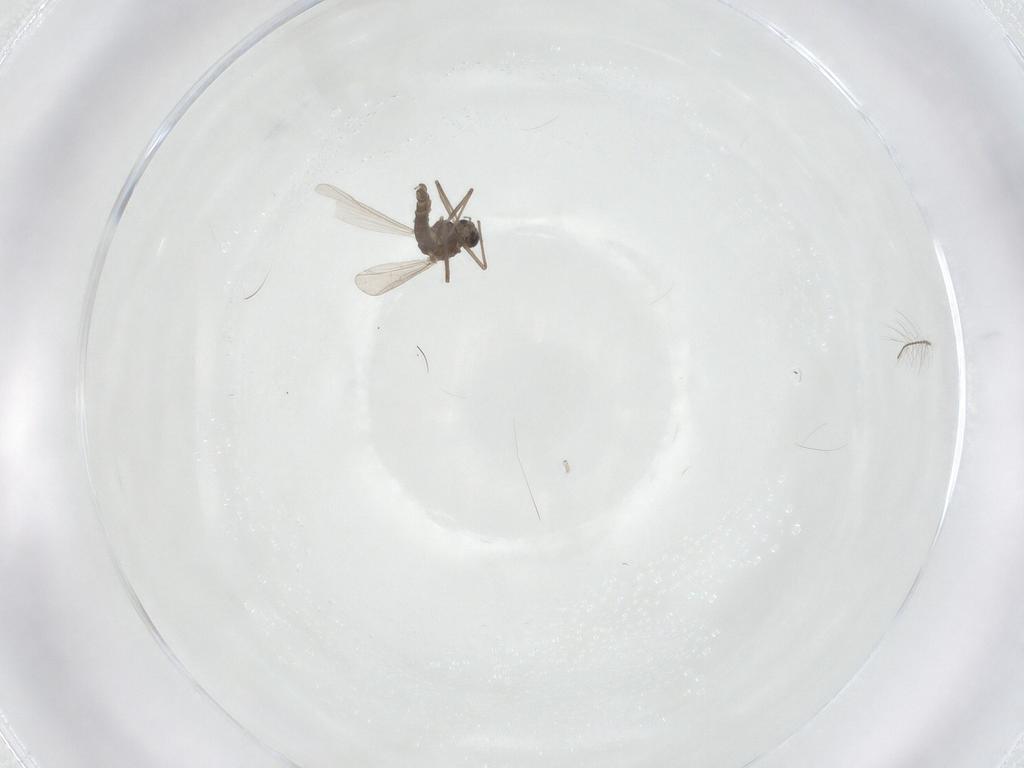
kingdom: Animalia
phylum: Arthropoda
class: Insecta
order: Diptera
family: Chironomidae
